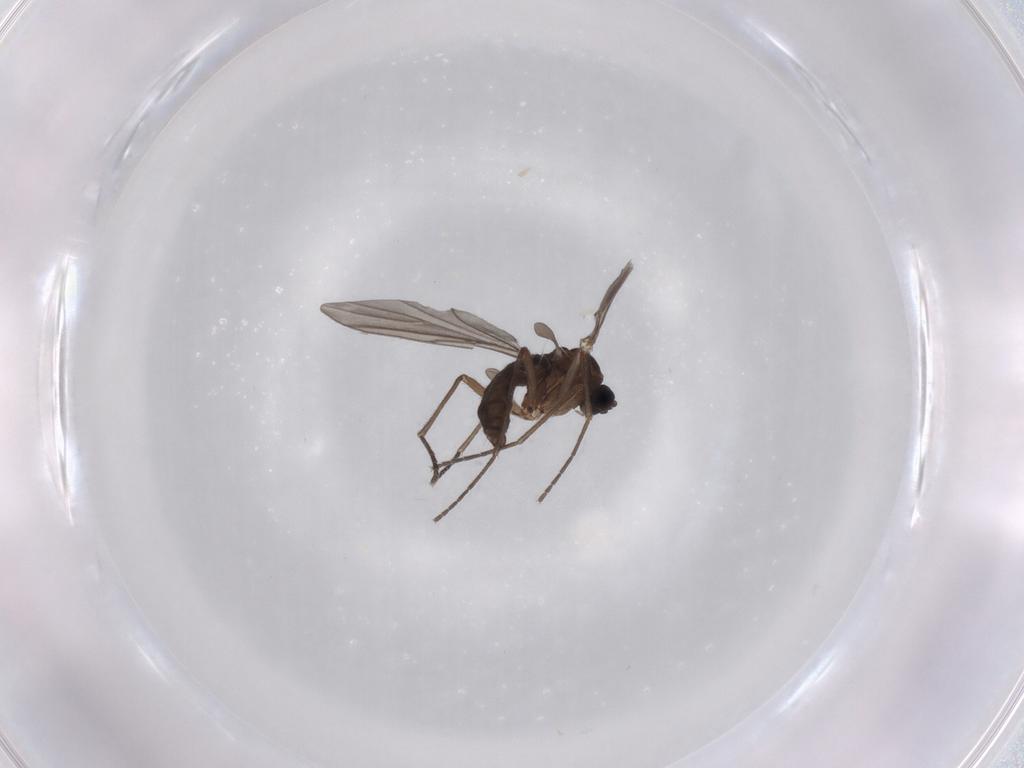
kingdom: Animalia
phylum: Arthropoda
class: Insecta
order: Diptera
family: Sciaridae
